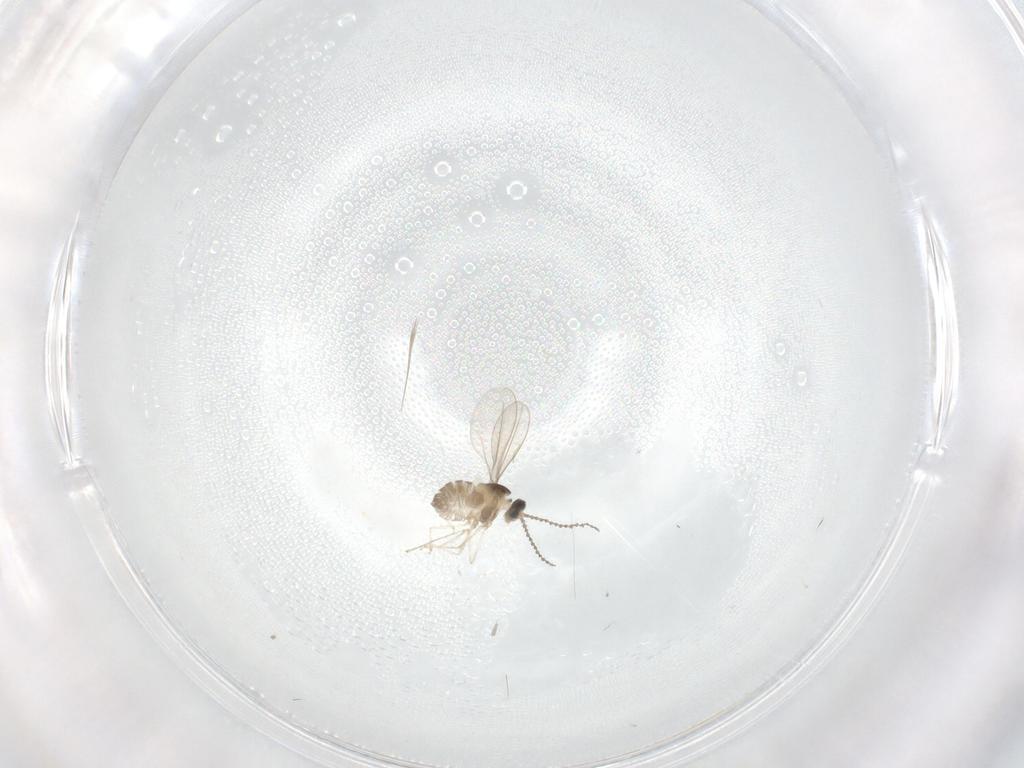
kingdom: Animalia
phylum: Arthropoda
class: Insecta
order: Diptera
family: Cecidomyiidae
